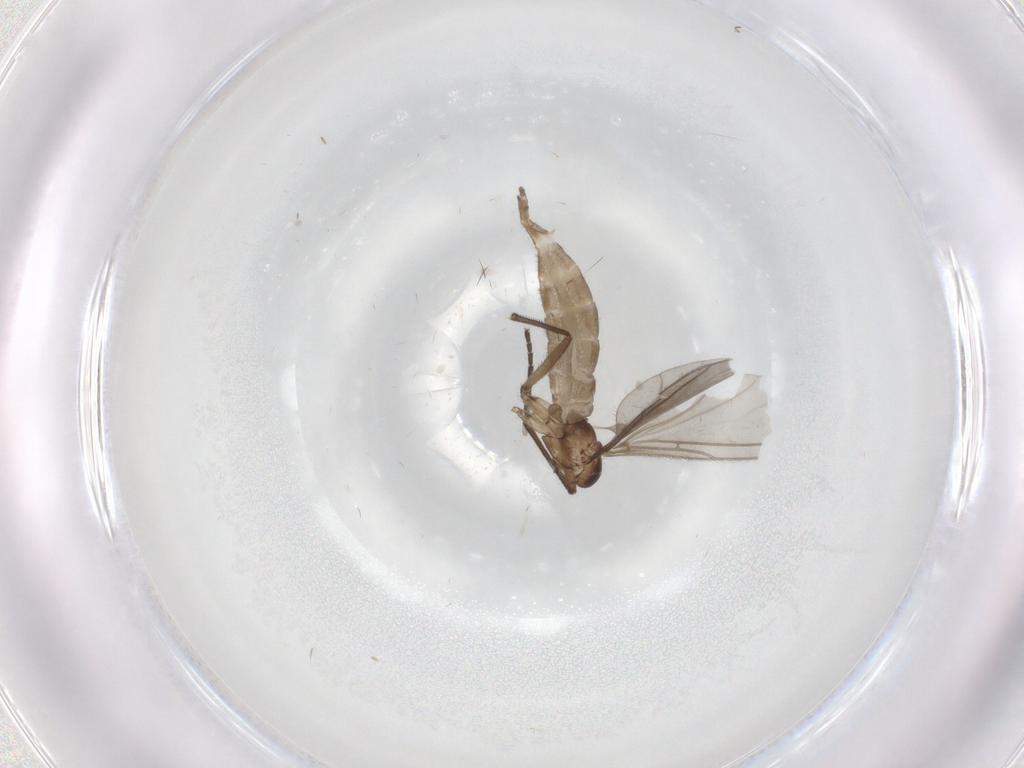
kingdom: Animalia
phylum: Arthropoda
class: Insecta
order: Diptera
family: Sciaridae
